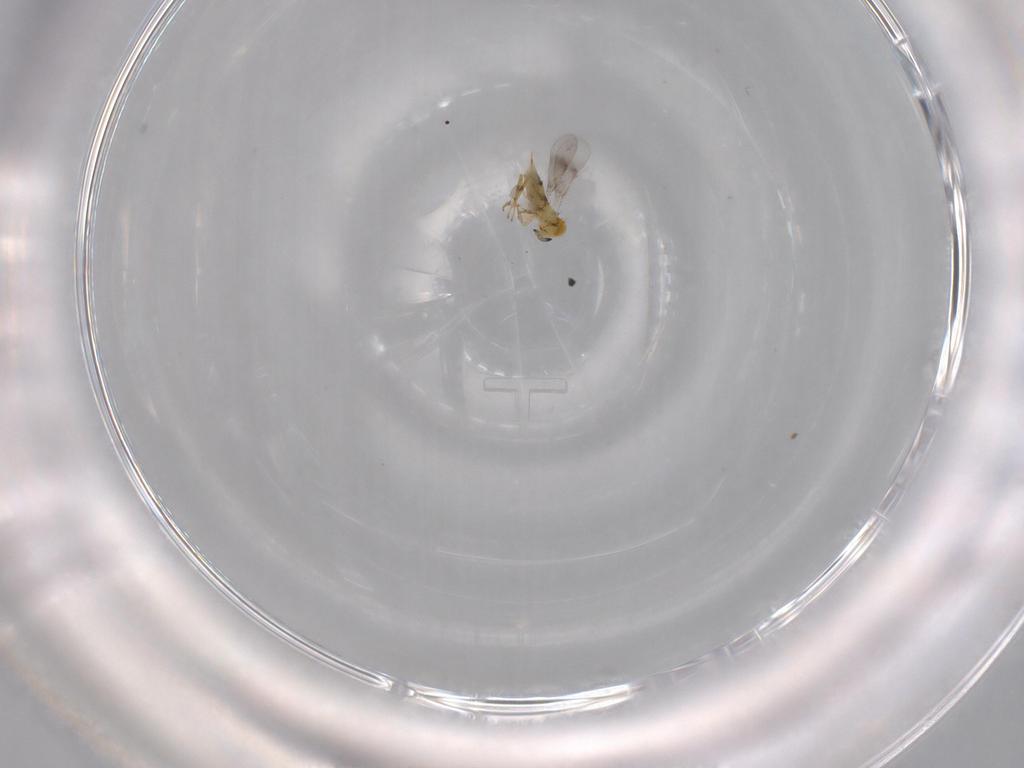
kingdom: Animalia
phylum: Arthropoda
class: Insecta
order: Hymenoptera
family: Aphelinidae
